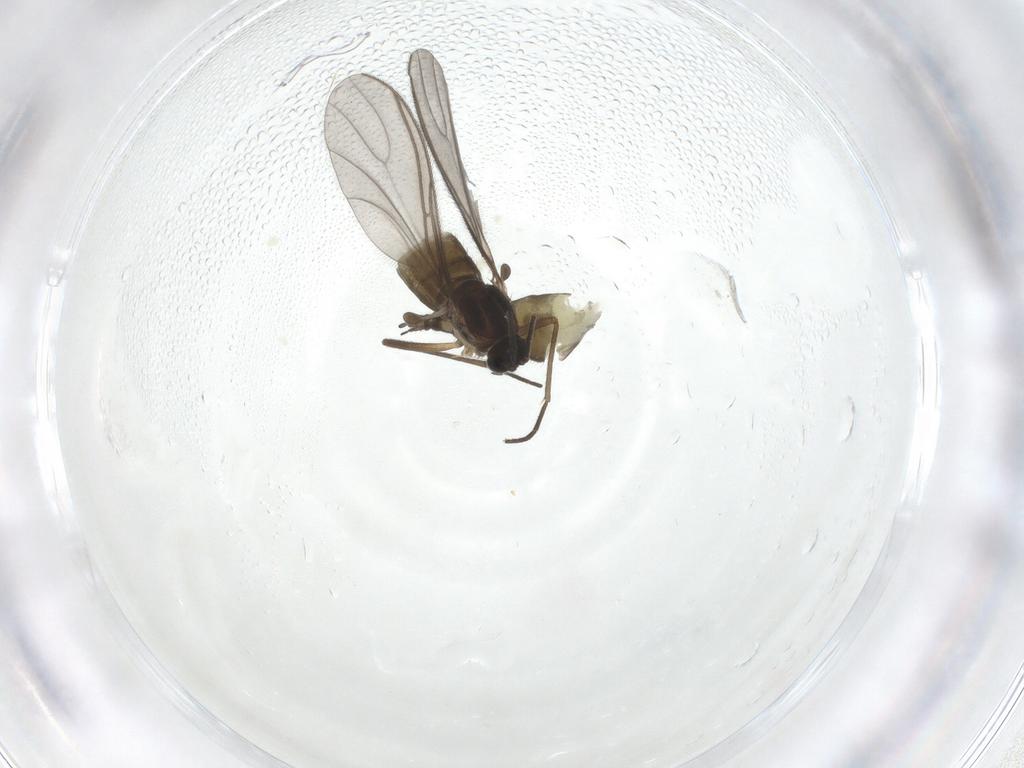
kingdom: Animalia
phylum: Arthropoda
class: Insecta
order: Diptera
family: Sciaridae
